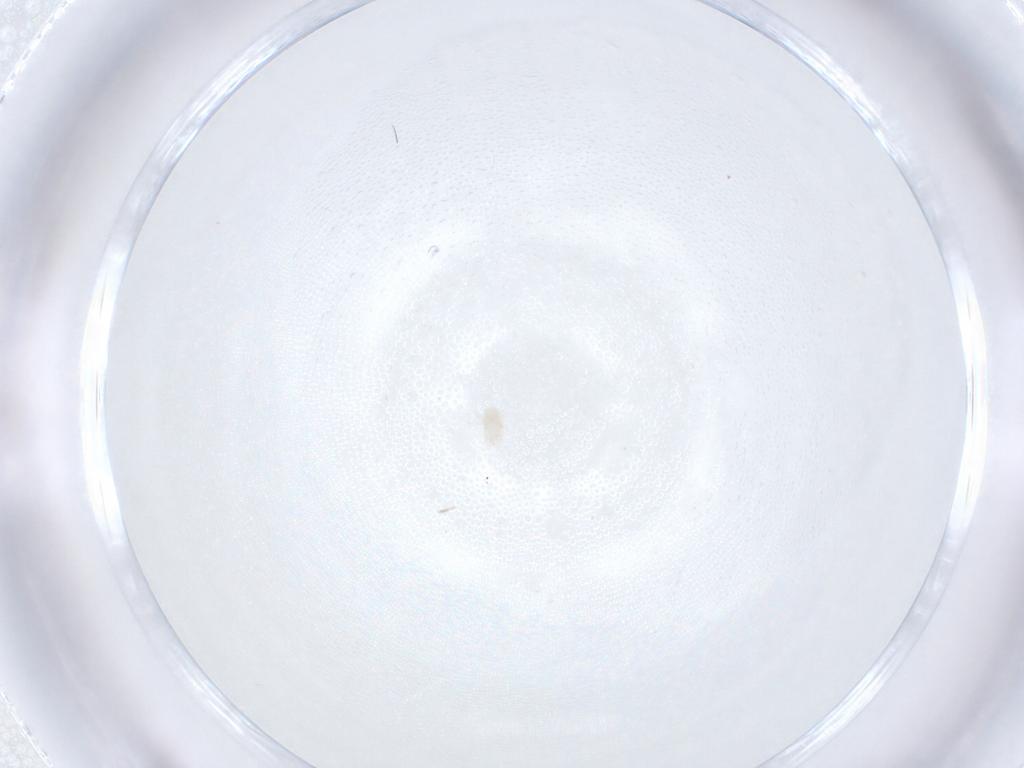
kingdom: Animalia
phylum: Arthropoda
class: Arachnida
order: Mesostigmata
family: Melicharidae
